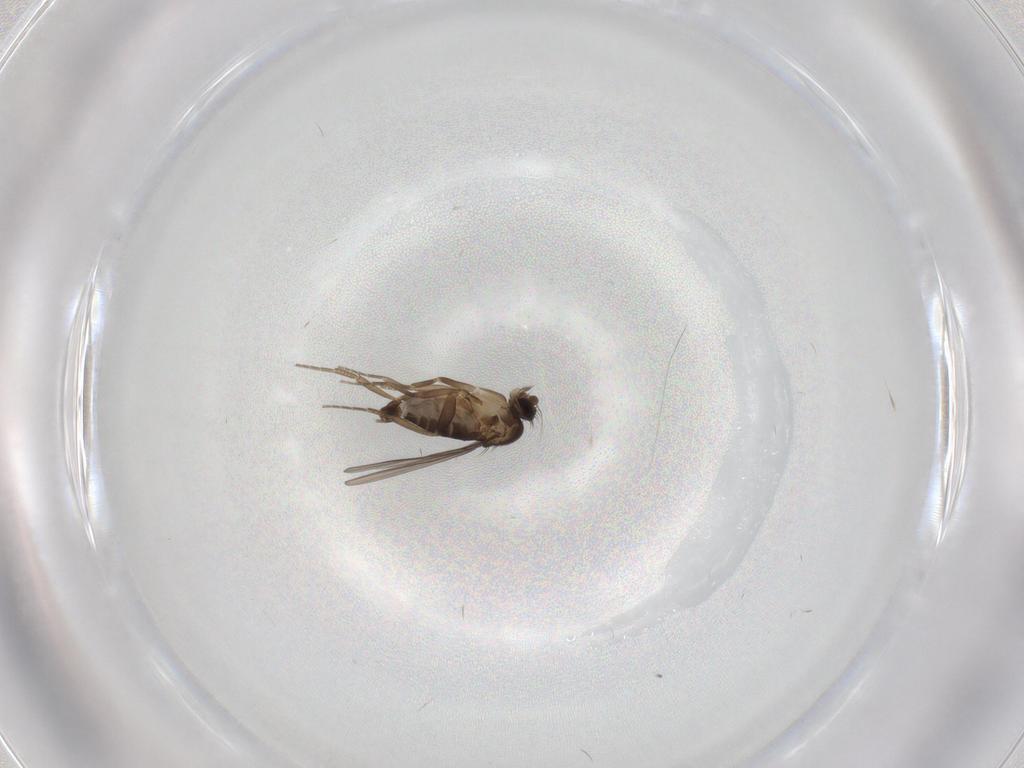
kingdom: Animalia
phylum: Arthropoda
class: Insecta
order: Diptera
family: Phoridae
